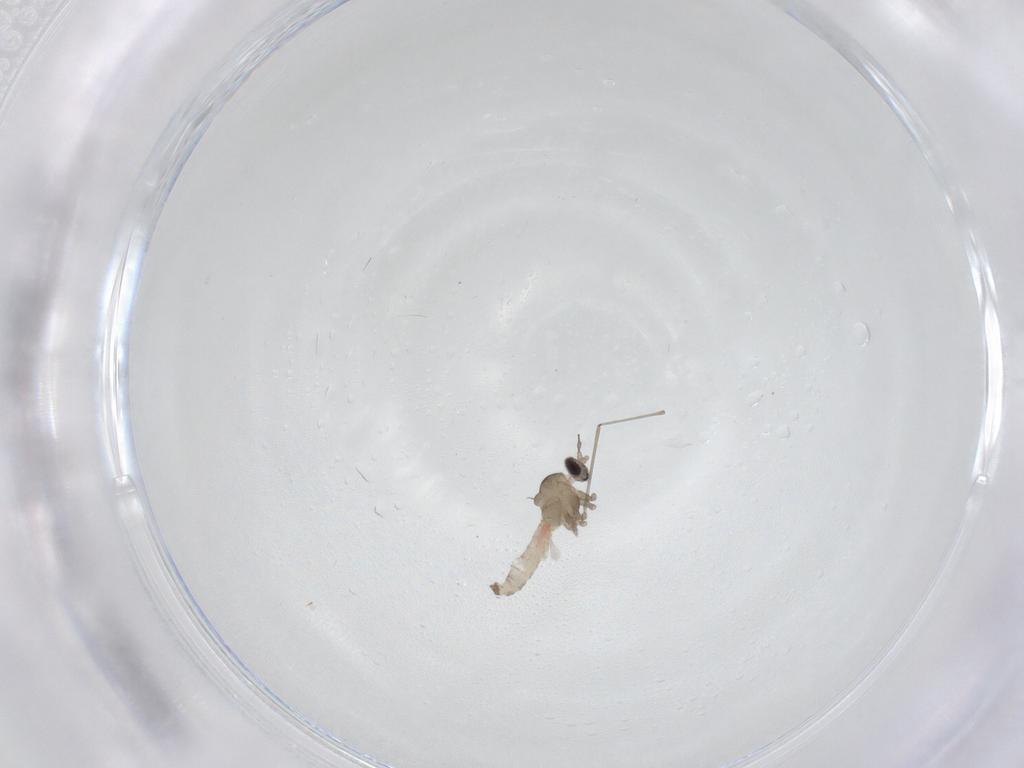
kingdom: Animalia
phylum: Arthropoda
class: Insecta
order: Diptera
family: Cecidomyiidae
